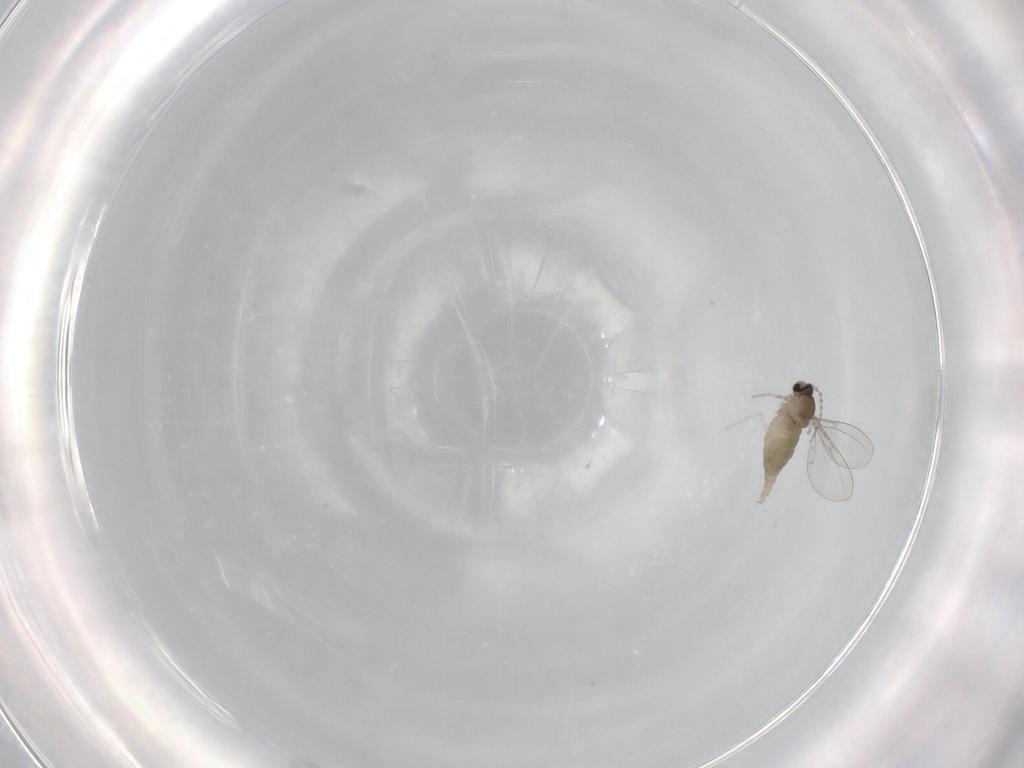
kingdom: Animalia
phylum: Arthropoda
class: Insecta
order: Diptera
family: Cecidomyiidae
